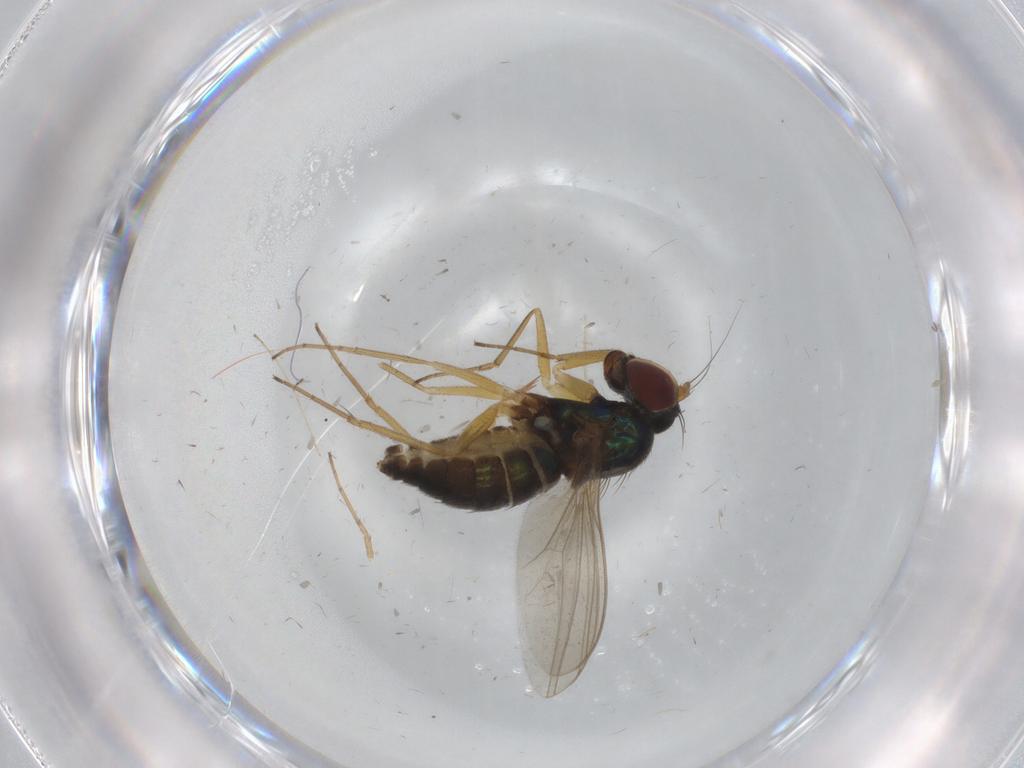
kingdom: Animalia
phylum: Arthropoda
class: Insecta
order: Diptera
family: Dolichopodidae
